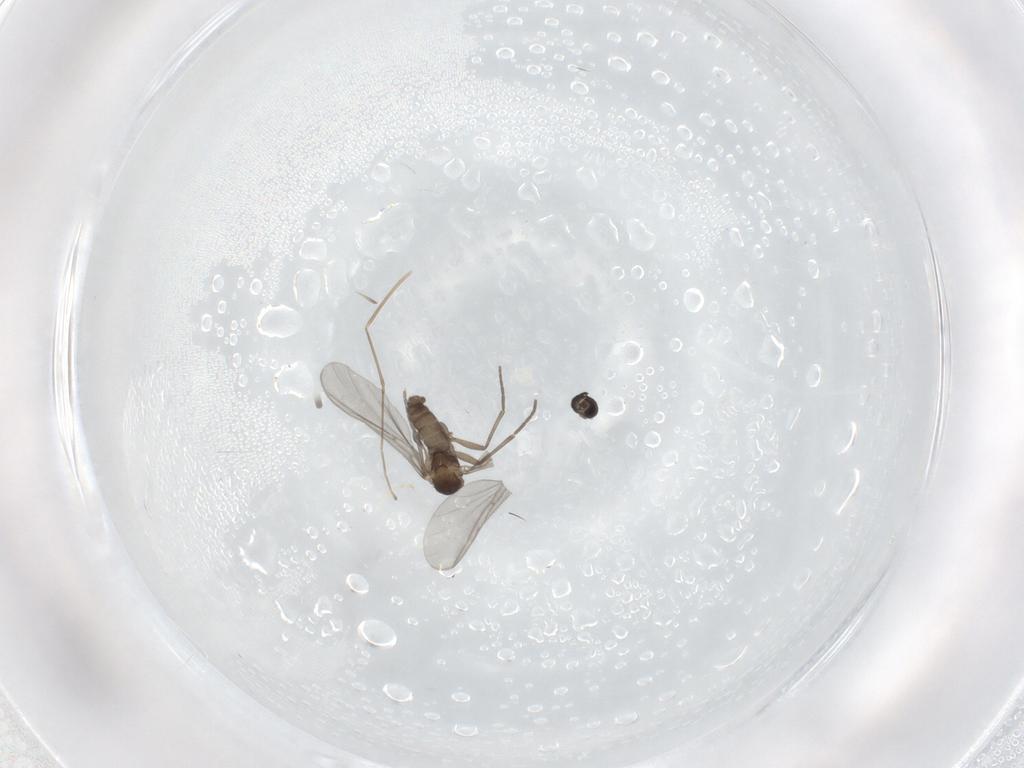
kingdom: Animalia
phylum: Arthropoda
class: Insecta
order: Diptera
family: Sciaridae
